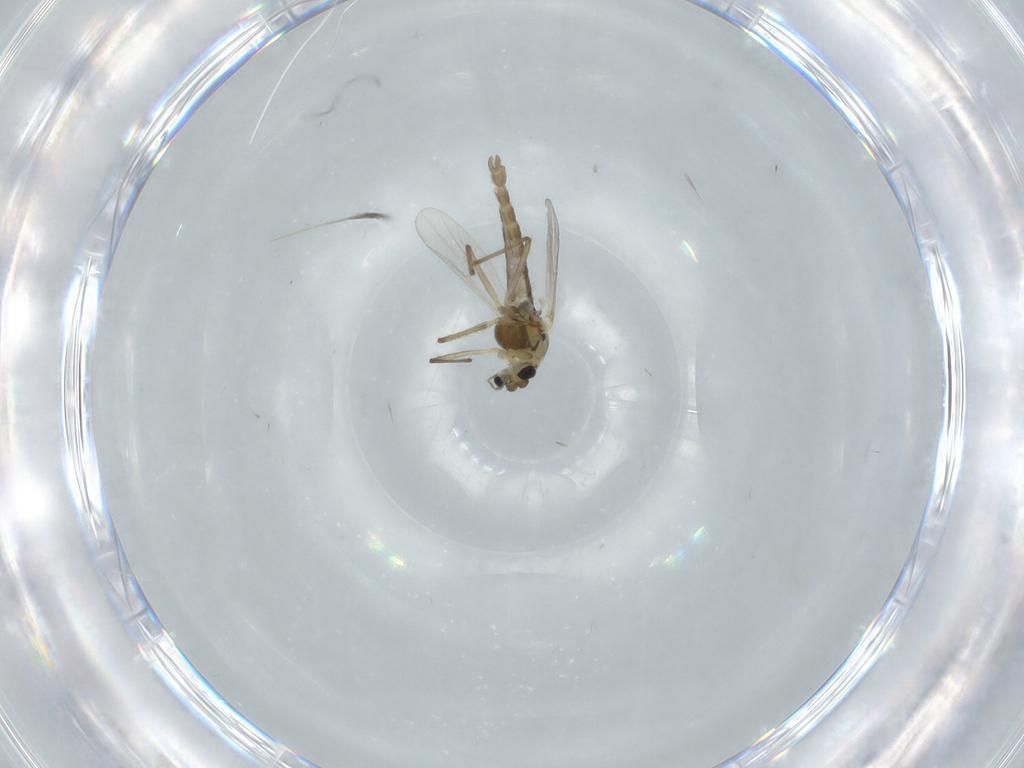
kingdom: Animalia
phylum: Arthropoda
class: Insecta
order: Diptera
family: Chironomidae
